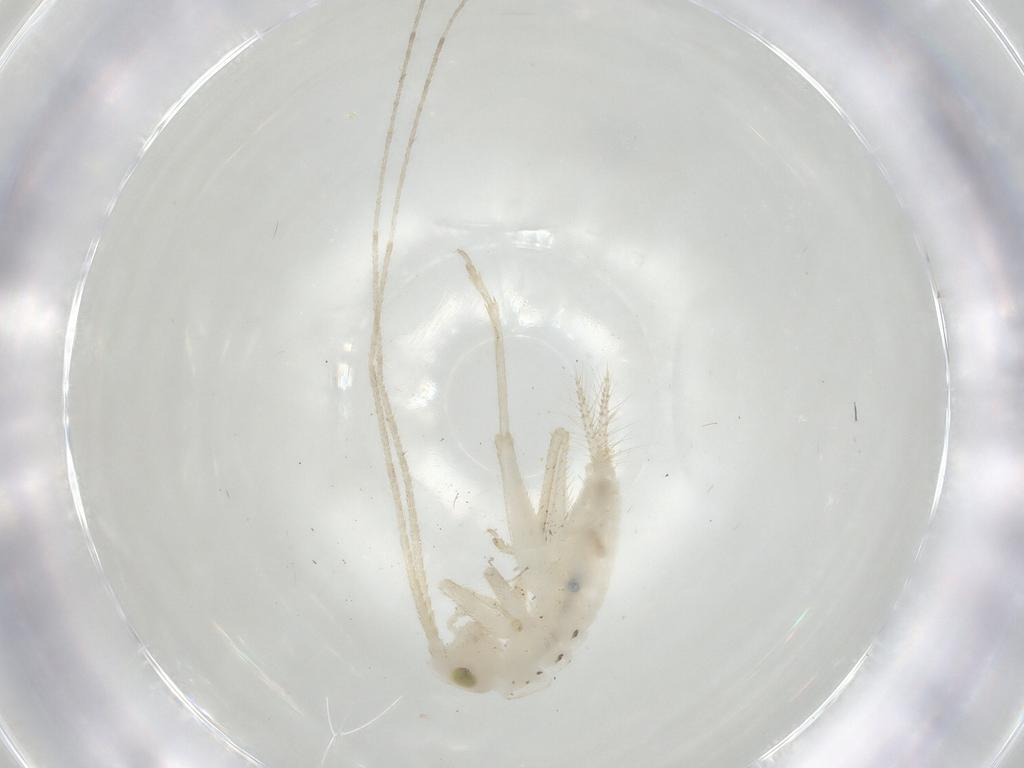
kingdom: Animalia
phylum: Arthropoda
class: Insecta
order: Orthoptera
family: Trigonidiidae
